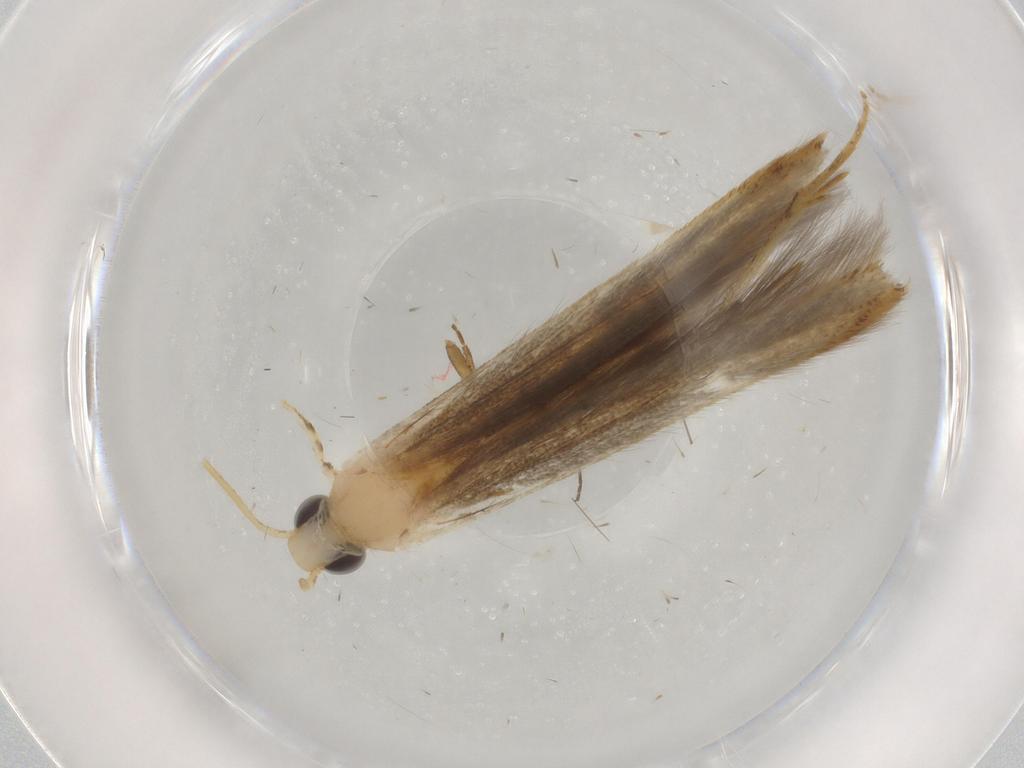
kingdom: Animalia
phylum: Arthropoda
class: Insecta
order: Lepidoptera
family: Batrachedridae
